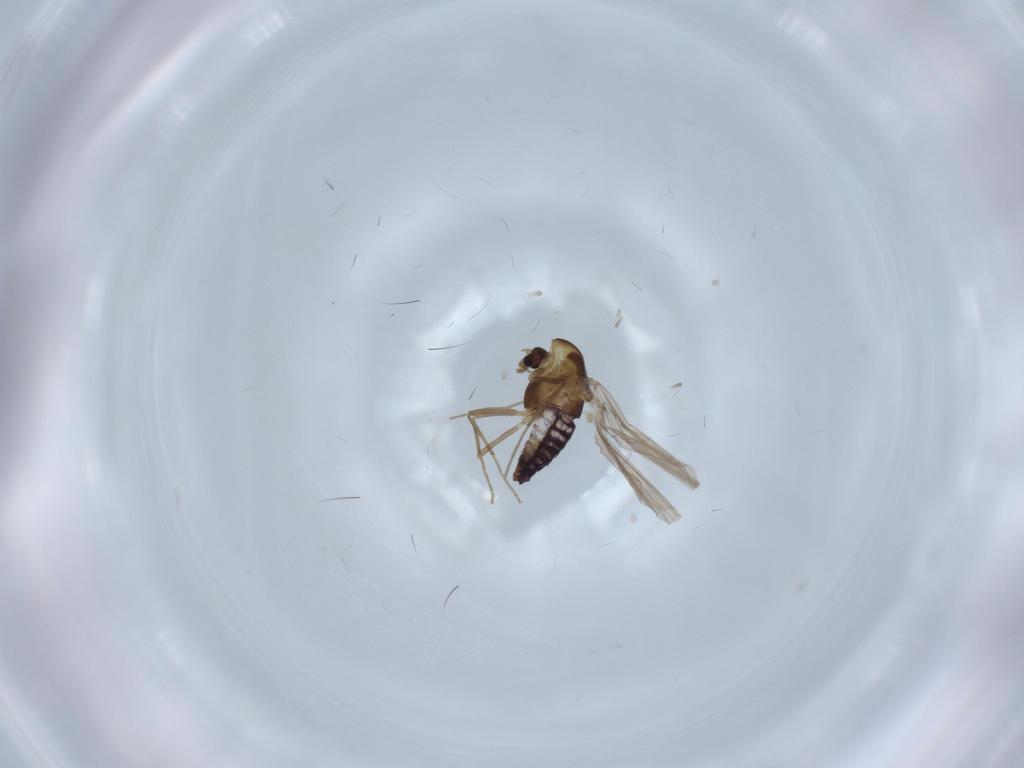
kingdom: Animalia
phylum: Arthropoda
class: Insecta
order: Diptera
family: Chironomidae
